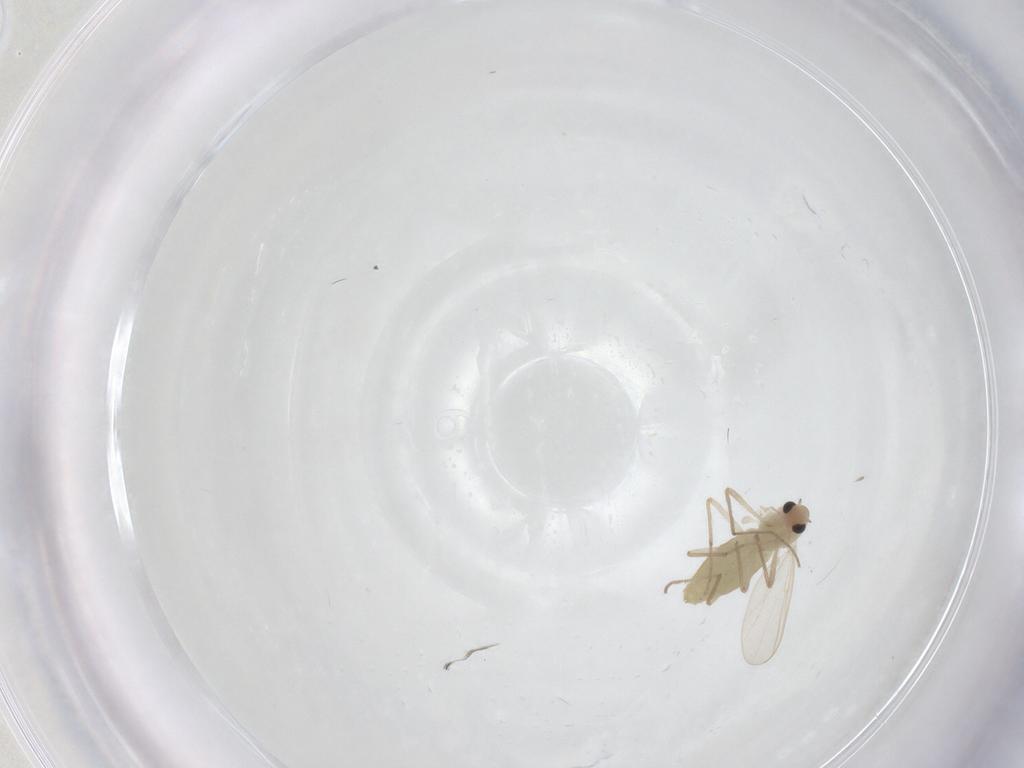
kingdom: Animalia
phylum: Arthropoda
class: Insecta
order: Diptera
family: Chironomidae
